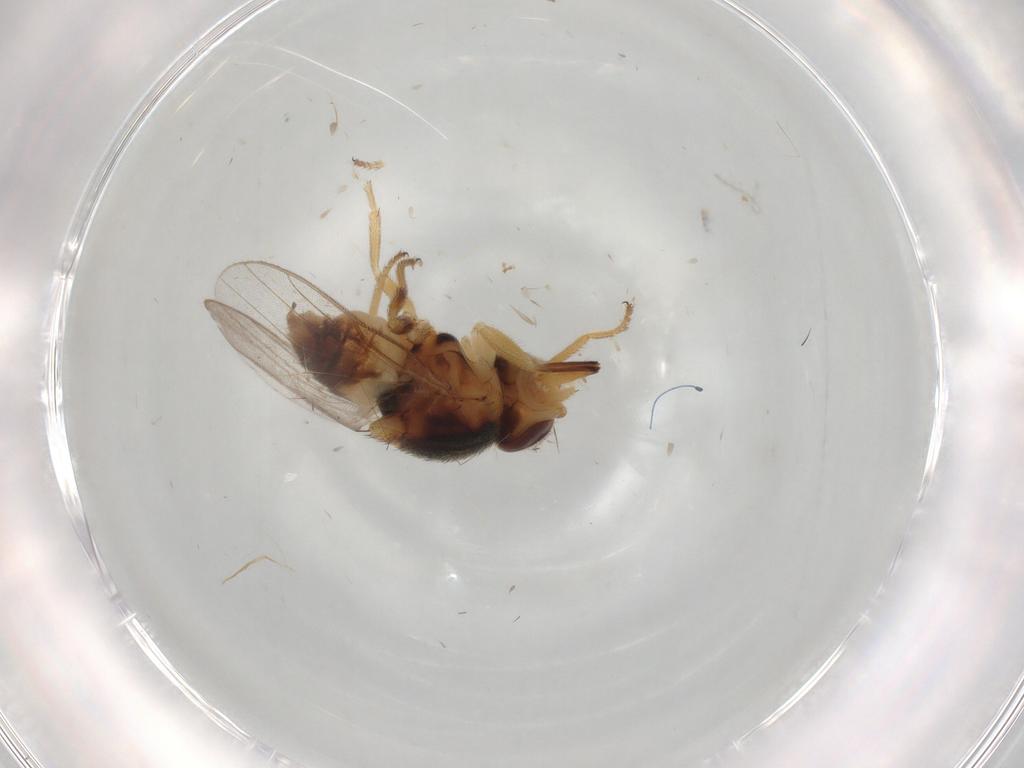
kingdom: Animalia
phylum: Arthropoda
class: Insecta
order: Diptera
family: Chloropidae
